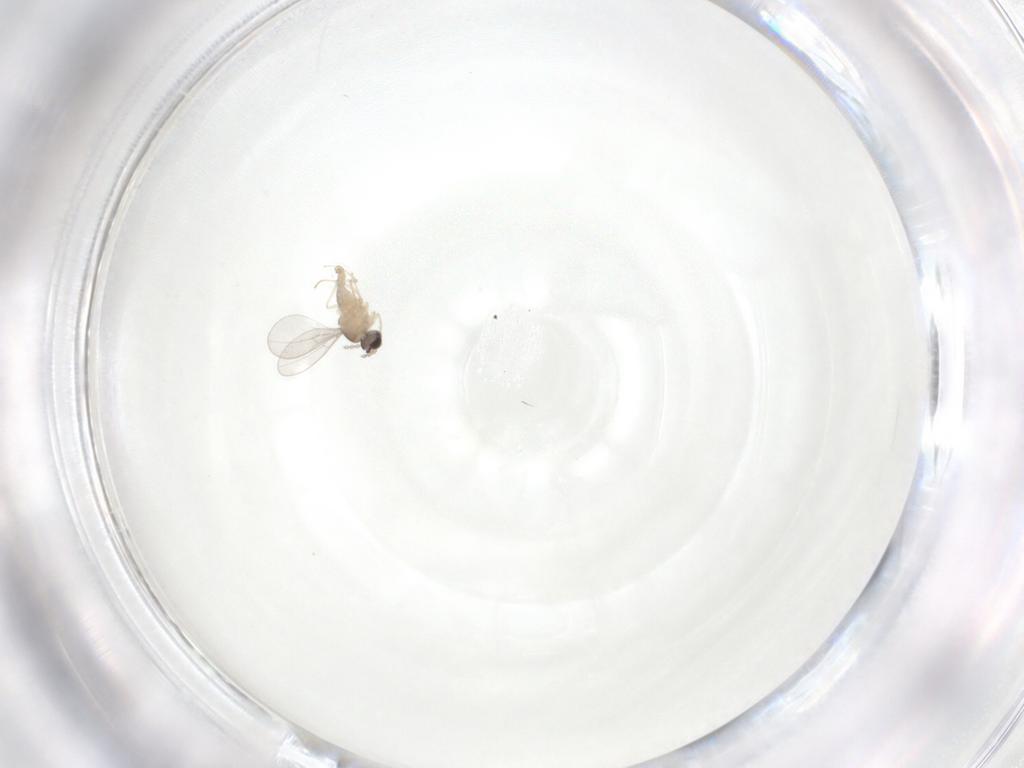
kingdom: Animalia
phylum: Arthropoda
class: Insecta
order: Diptera
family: Cecidomyiidae
